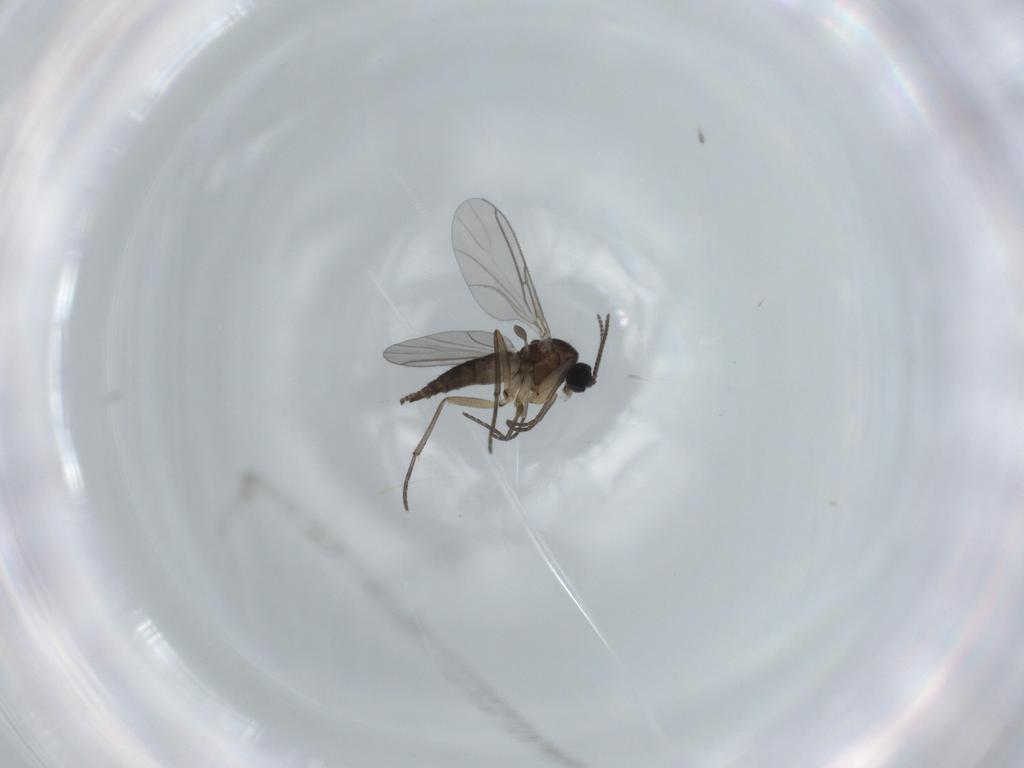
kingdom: Animalia
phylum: Arthropoda
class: Insecta
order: Diptera
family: Sciaridae
